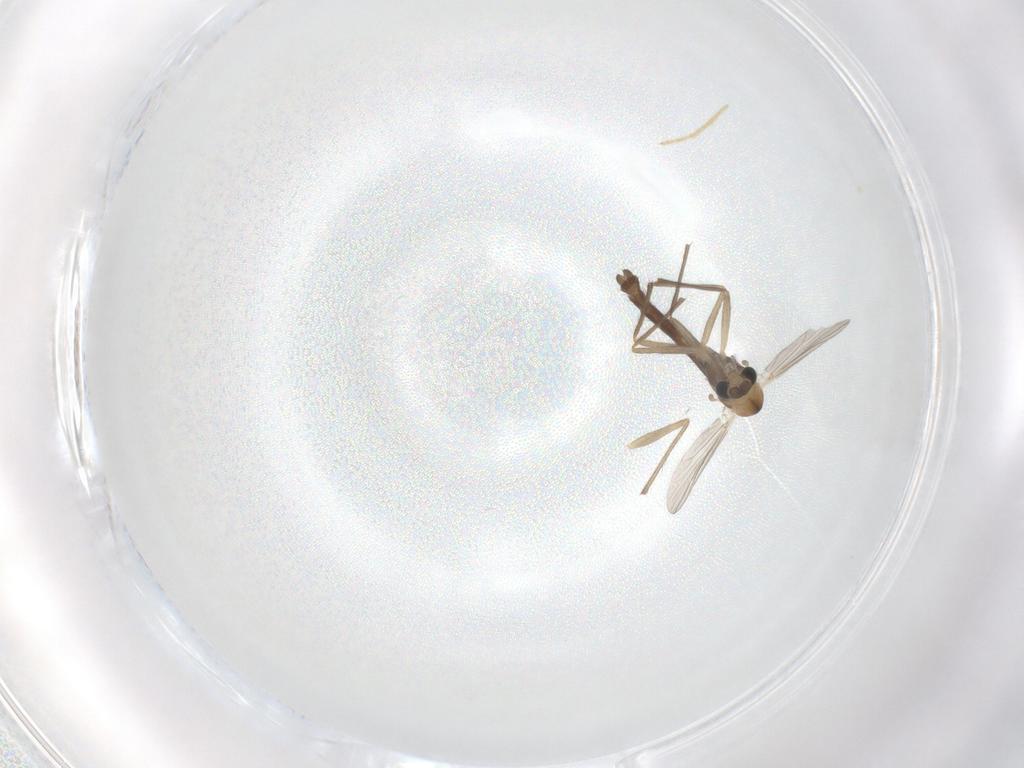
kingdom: Animalia
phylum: Arthropoda
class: Insecta
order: Diptera
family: Chironomidae
